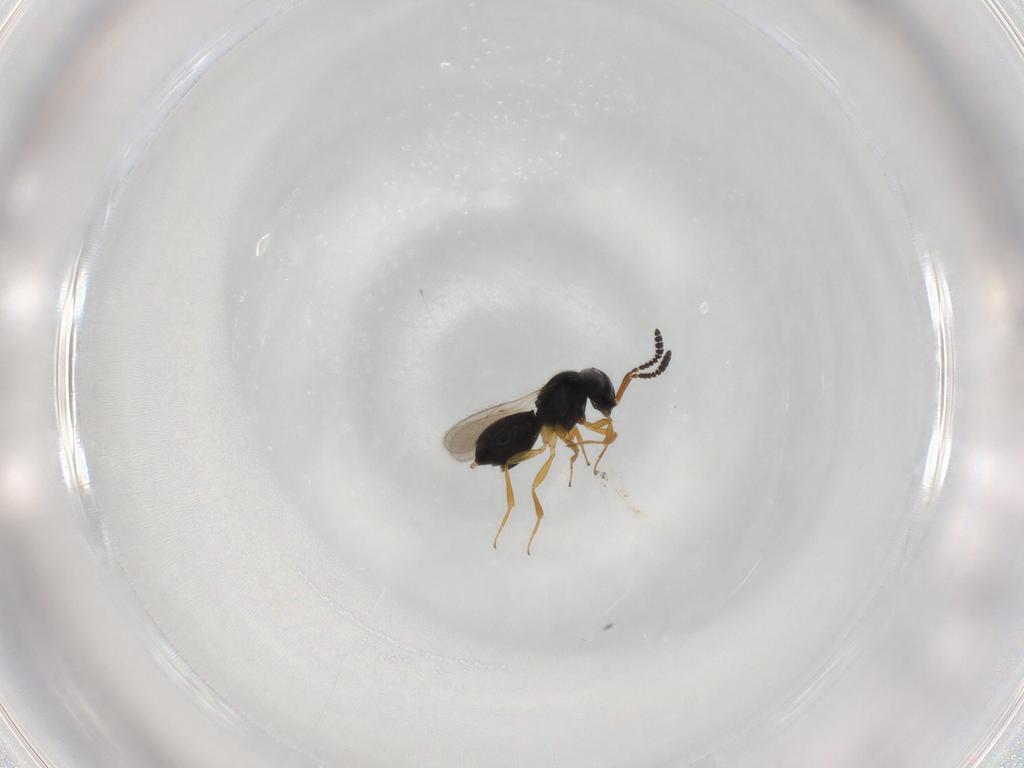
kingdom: Animalia
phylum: Arthropoda
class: Insecta
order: Hymenoptera
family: Scelionidae
